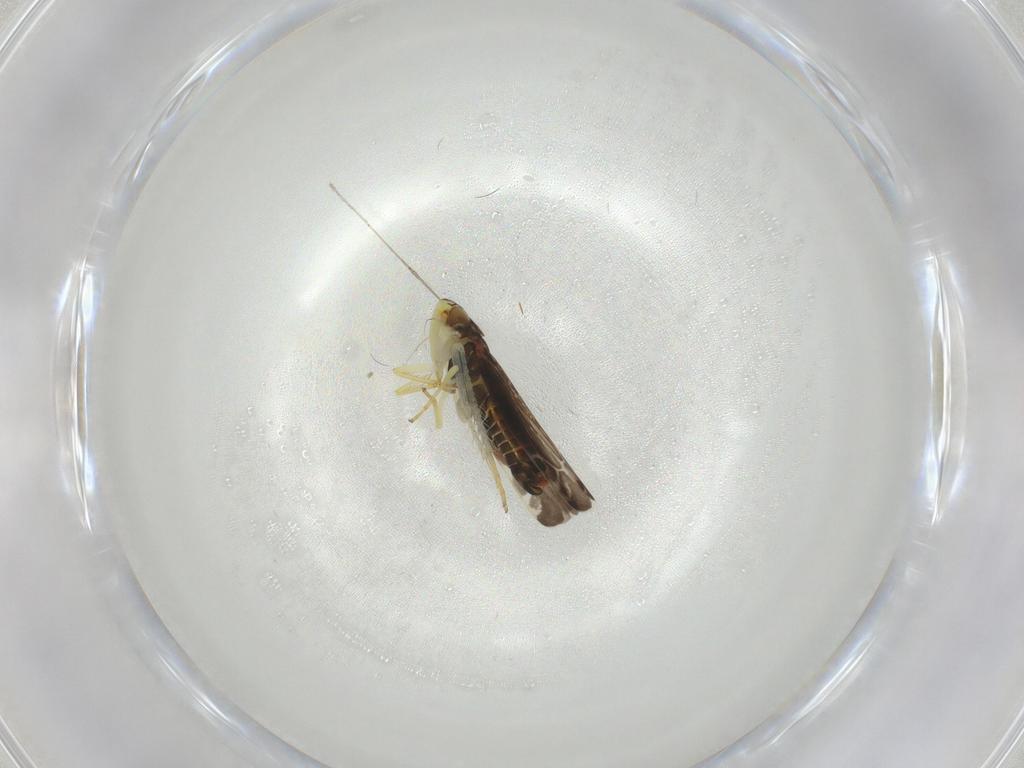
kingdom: Animalia
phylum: Arthropoda
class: Insecta
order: Hemiptera
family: Cicadellidae
